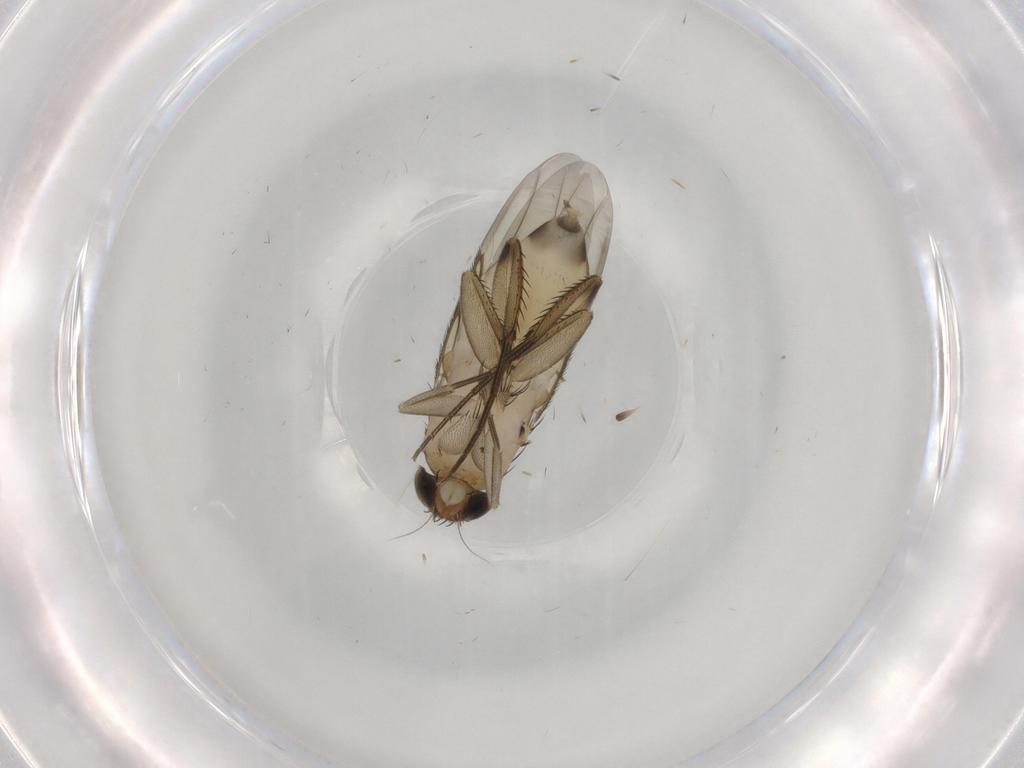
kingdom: Animalia
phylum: Arthropoda
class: Insecta
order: Diptera
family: Phoridae
